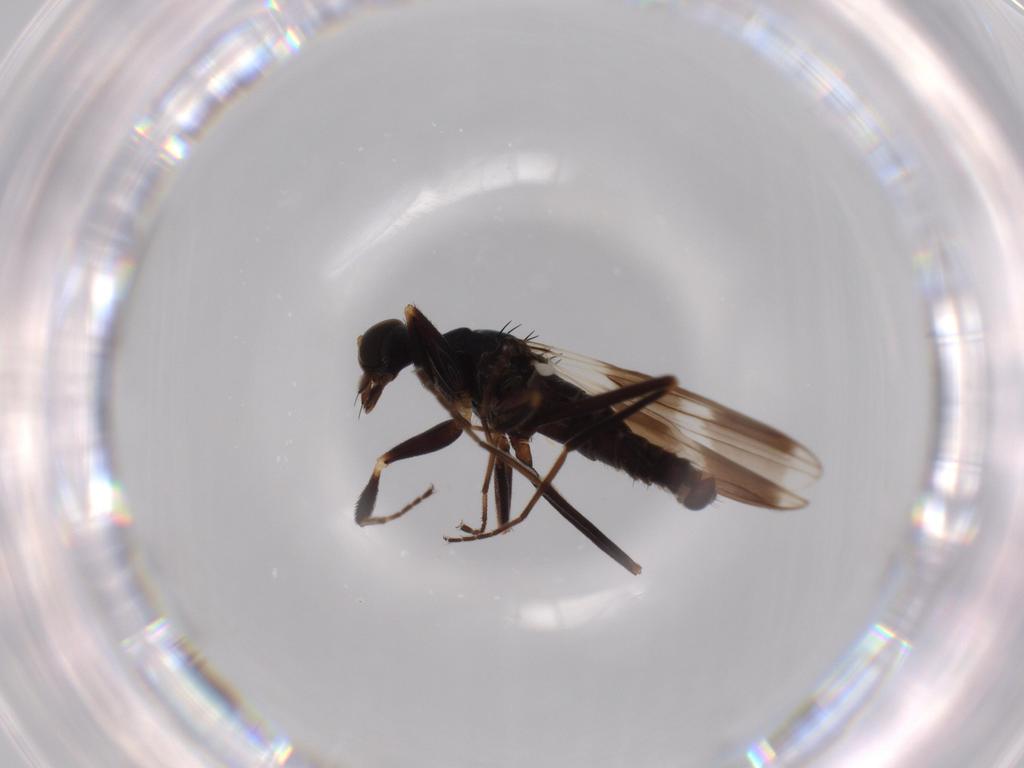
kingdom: Animalia
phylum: Arthropoda
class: Insecta
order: Diptera
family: Hybotidae
